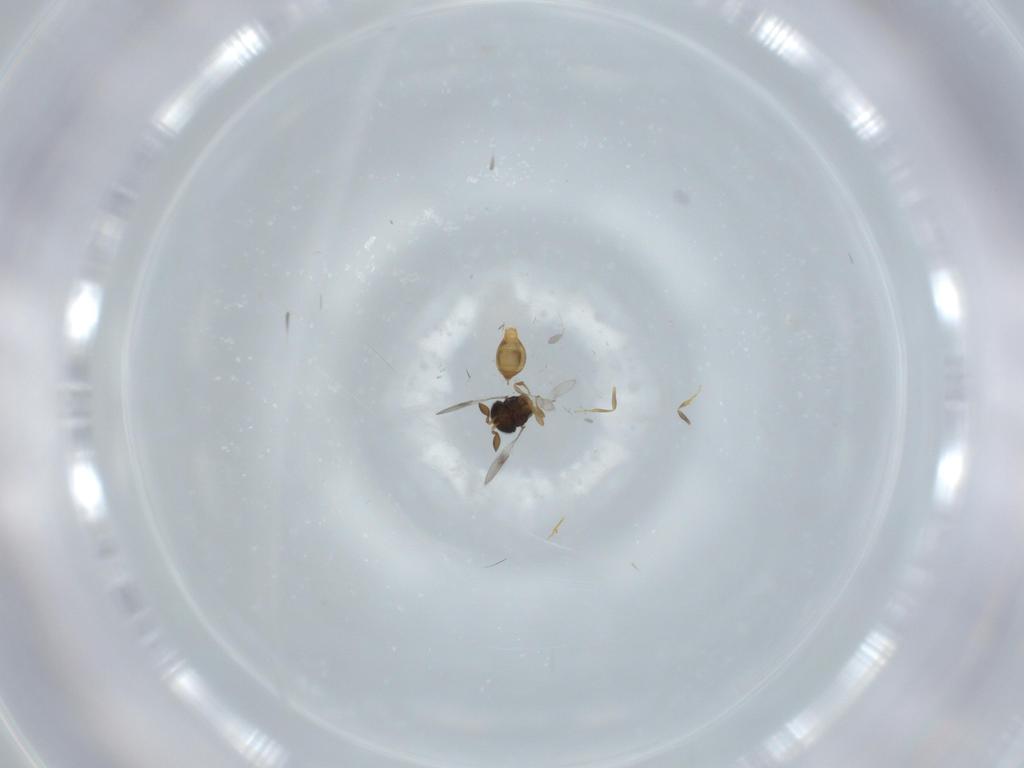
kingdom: Animalia
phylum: Arthropoda
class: Insecta
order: Hymenoptera
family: Scelionidae
